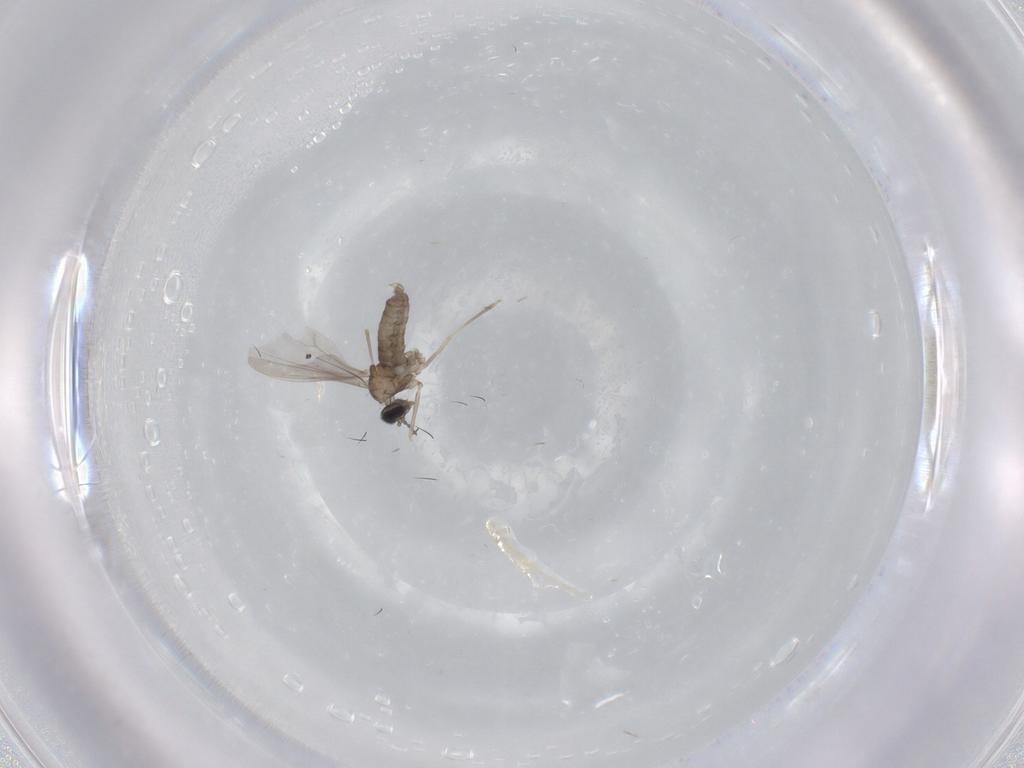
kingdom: Animalia
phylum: Arthropoda
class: Insecta
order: Diptera
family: Cecidomyiidae
